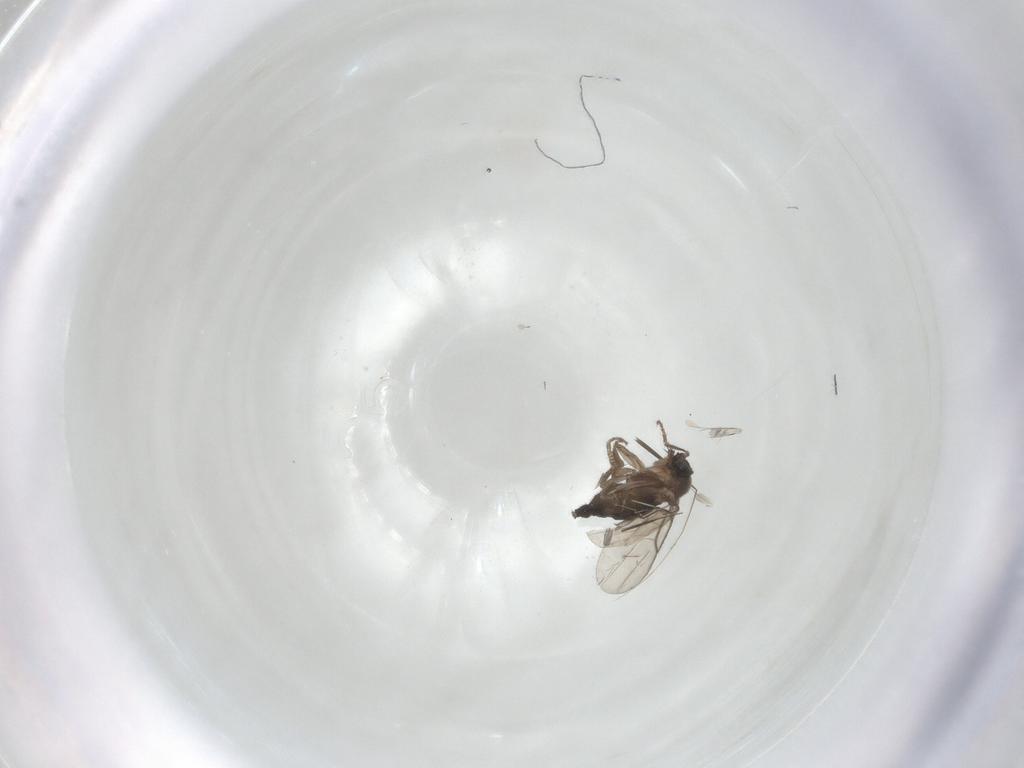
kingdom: Animalia
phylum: Arthropoda
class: Insecta
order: Diptera
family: Phoridae
